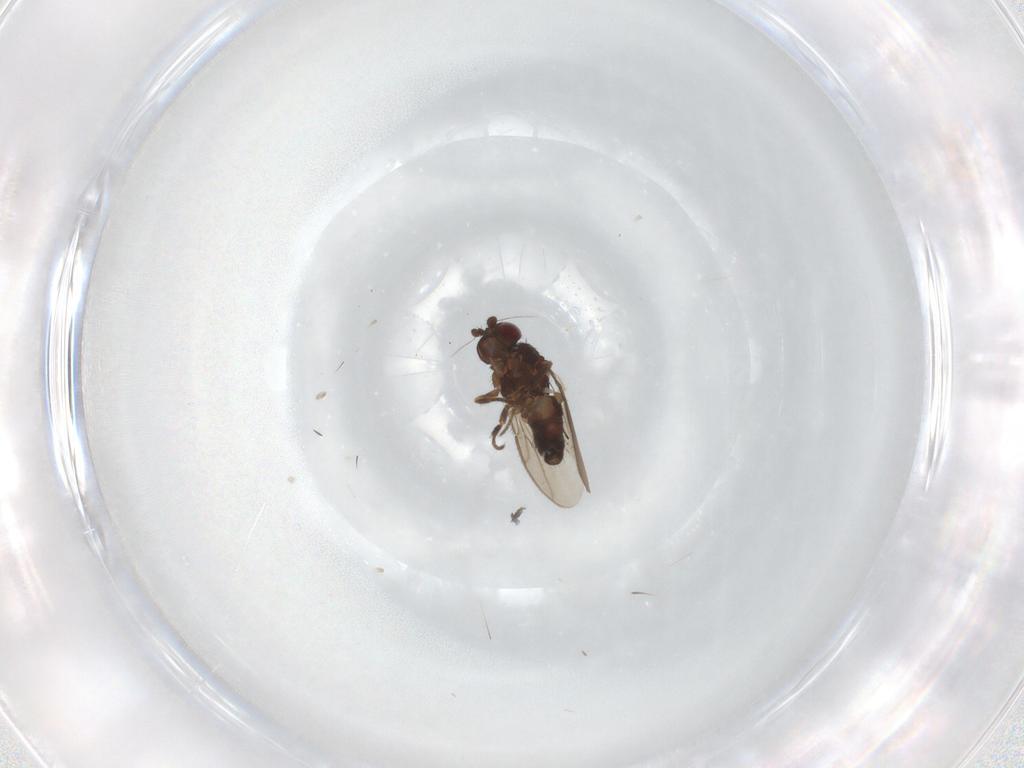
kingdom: Animalia
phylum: Arthropoda
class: Insecta
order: Diptera
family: Sphaeroceridae
